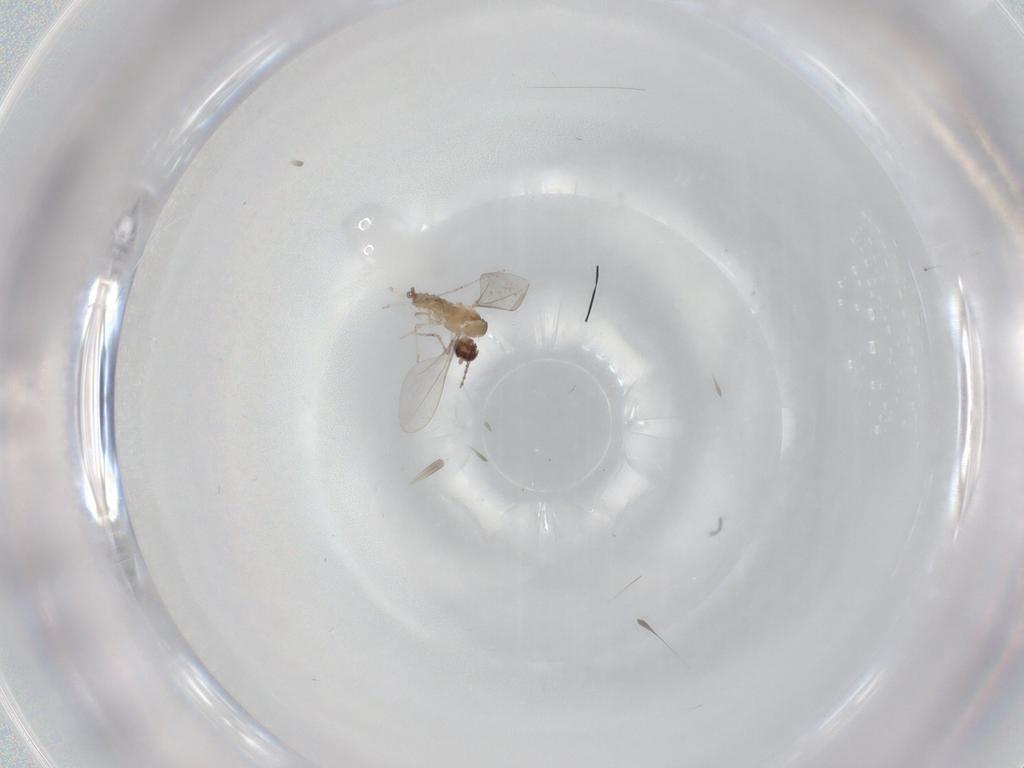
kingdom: Animalia
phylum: Arthropoda
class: Insecta
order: Diptera
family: Cecidomyiidae
